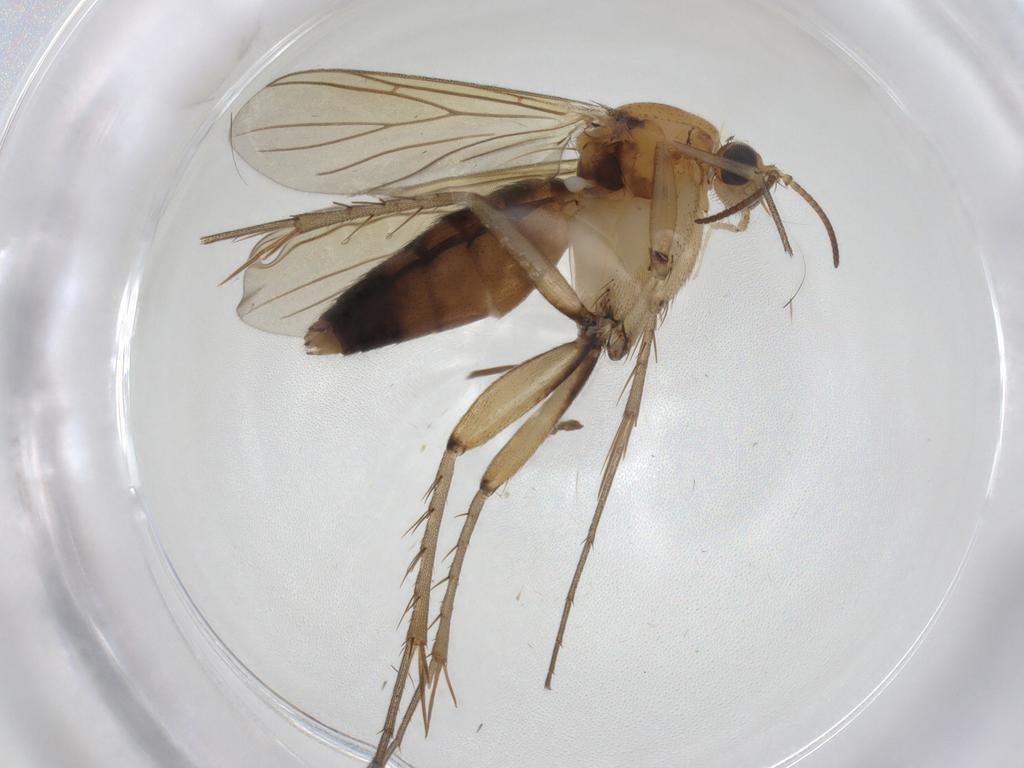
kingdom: Animalia
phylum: Arthropoda
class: Insecta
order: Diptera
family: Mycetophilidae
